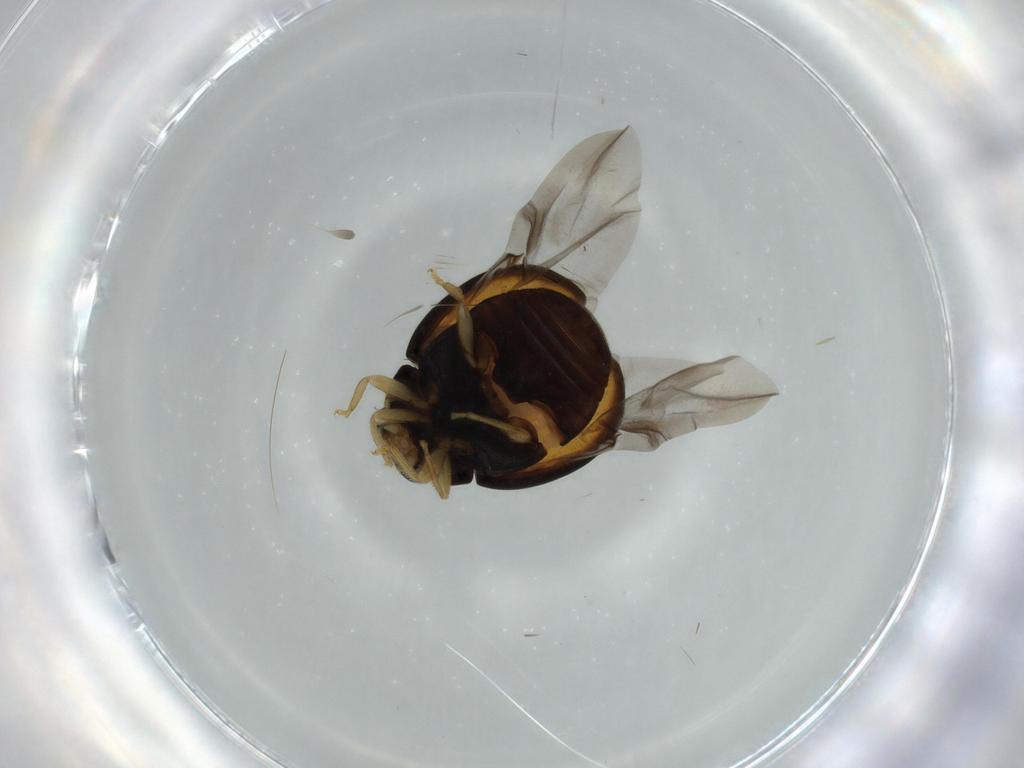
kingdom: Animalia
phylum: Arthropoda
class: Insecta
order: Coleoptera
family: Coccinellidae
